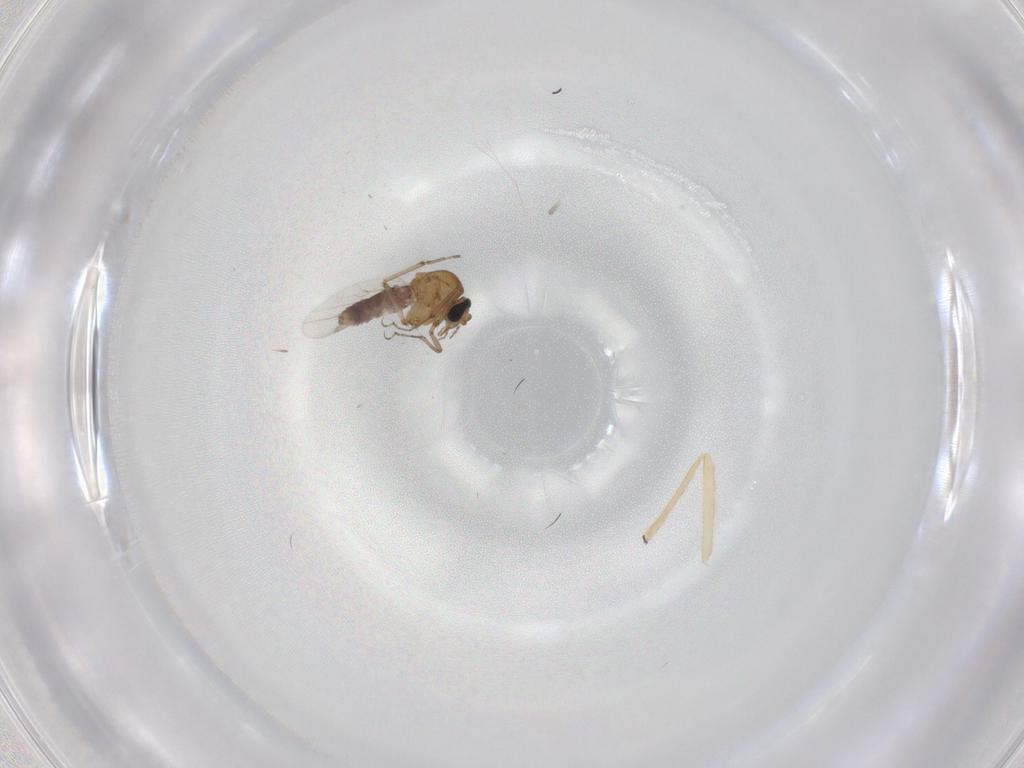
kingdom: Animalia
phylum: Arthropoda
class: Insecta
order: Diptera
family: Ceratopogonidae
